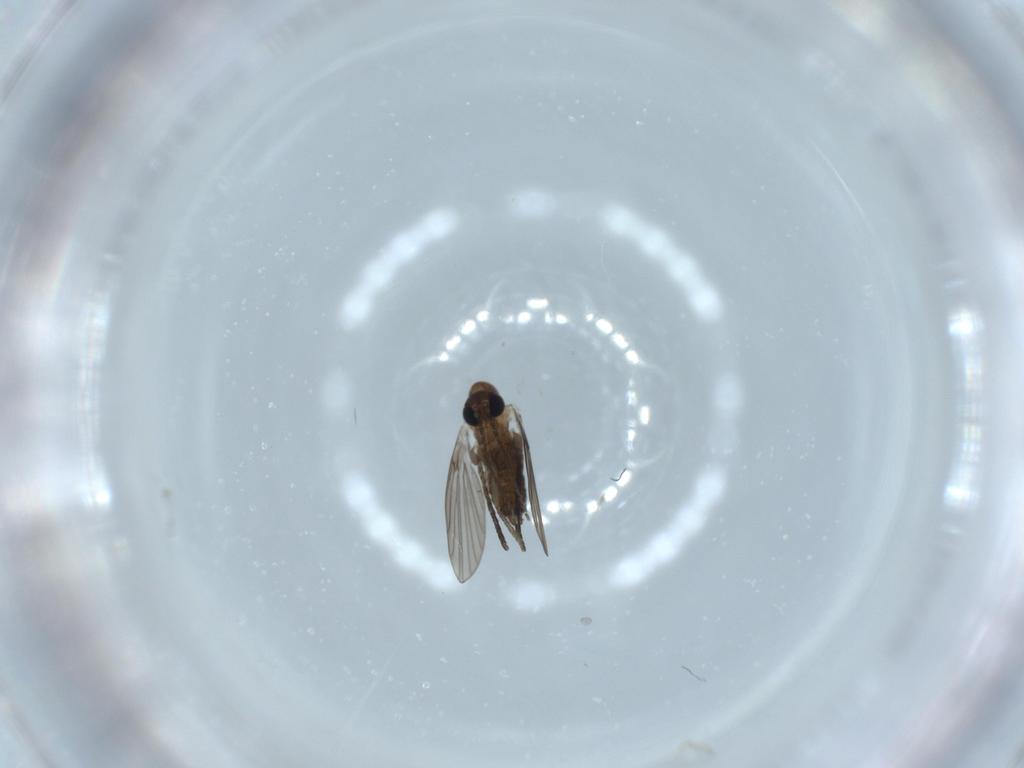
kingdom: Animalia
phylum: Arthropoda
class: Insecta
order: Diptera
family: Psychodidae
